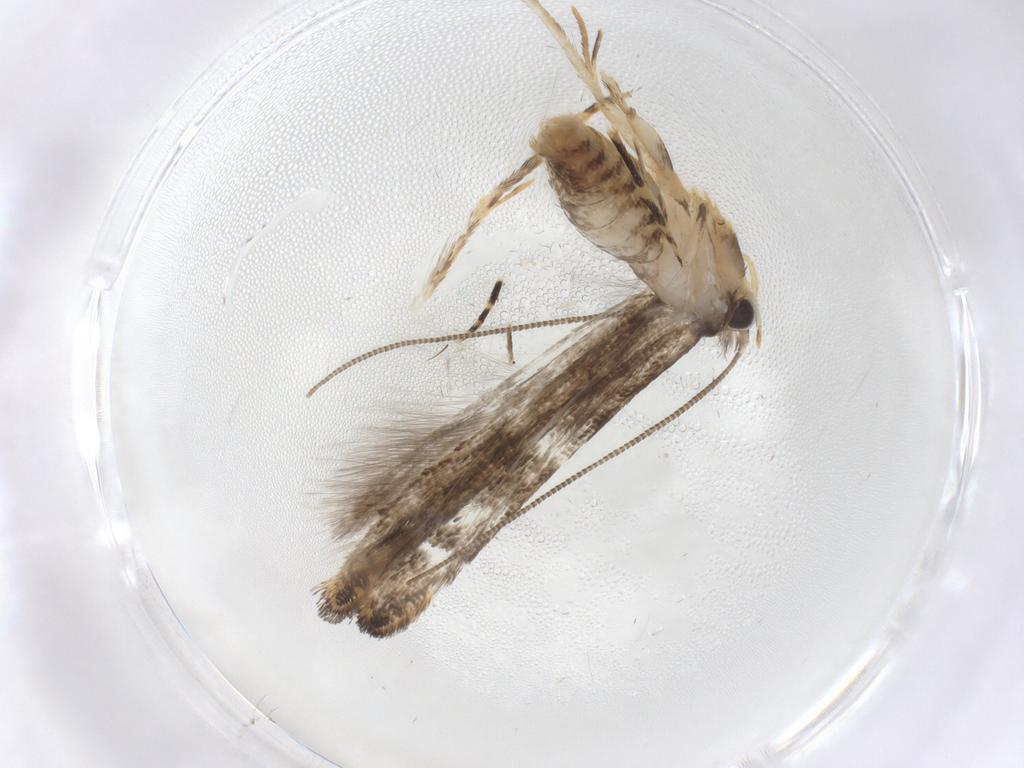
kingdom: Animalia
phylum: Arthropoda
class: Insecta
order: Lepidoptera
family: Tineidae
